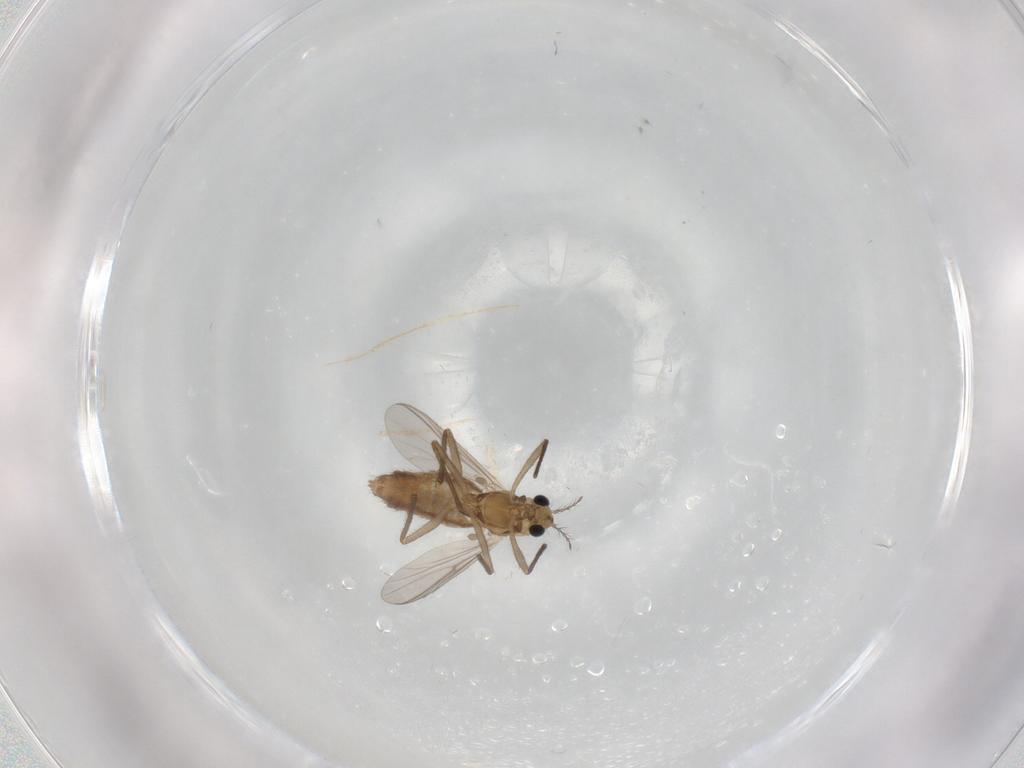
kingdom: Animalia
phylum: Arthropoda
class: Insecta
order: Diptera
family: Chironomidae
